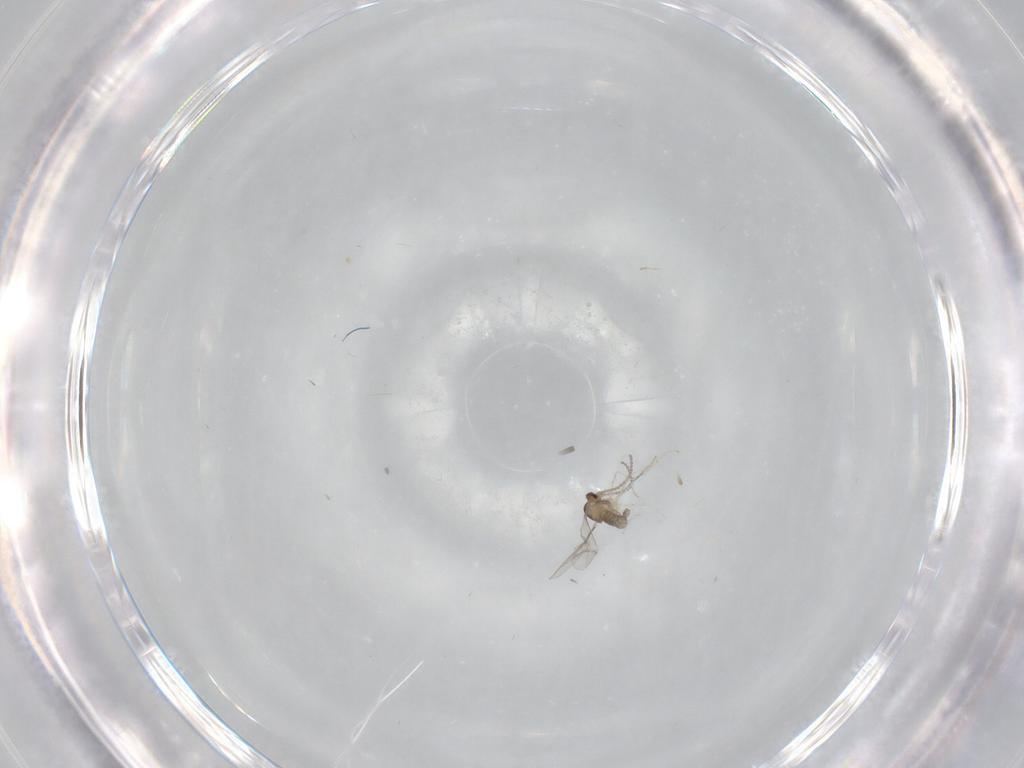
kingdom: Animalia
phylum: Arthropoda
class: Insecta
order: Diptera
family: Cecidomyiidae
